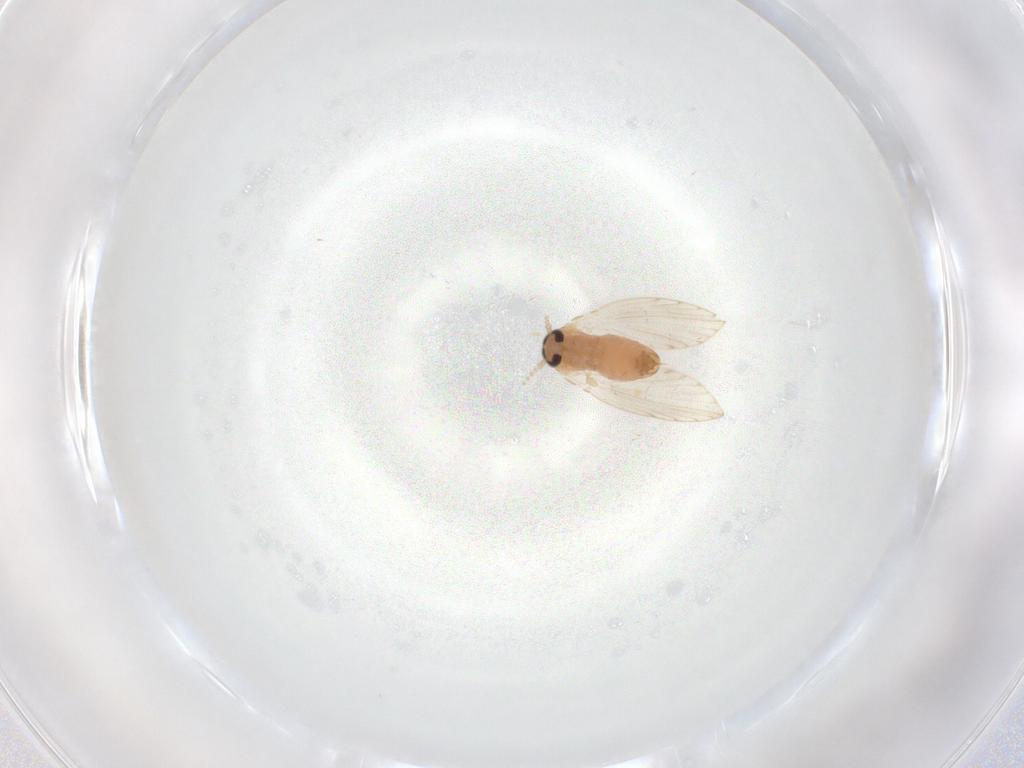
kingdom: Animalia
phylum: Arthropoda
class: Insecta
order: Diptera
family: Psychodidae
